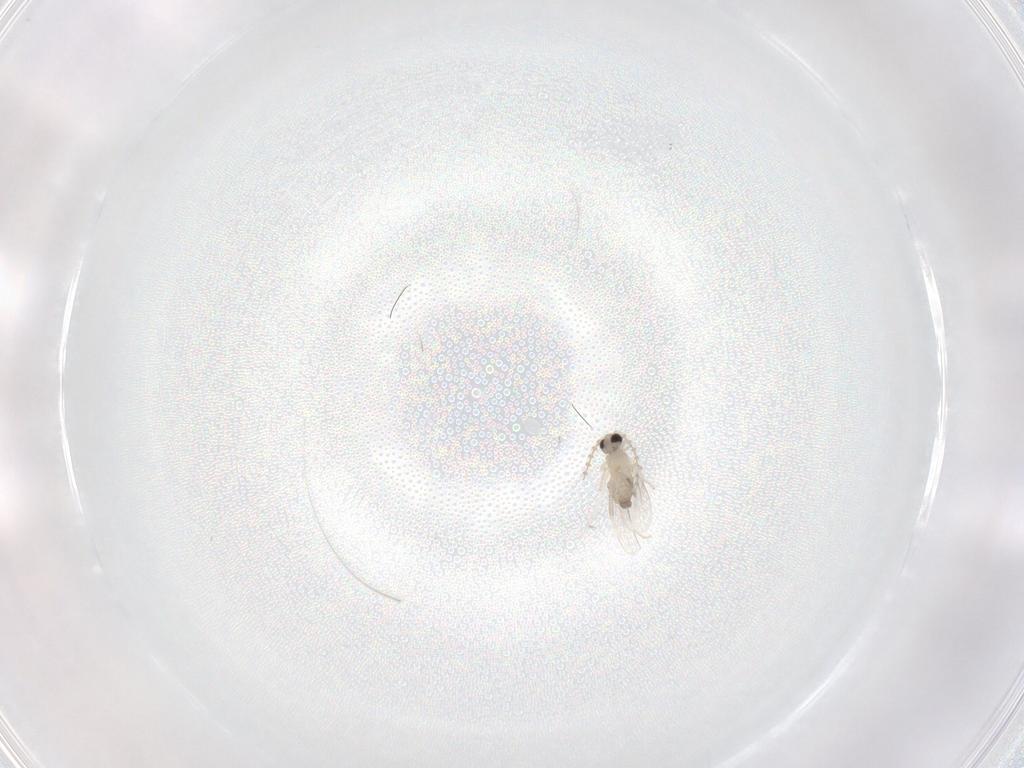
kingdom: Animalia
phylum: Arthropoda
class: Insecta
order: Diptera
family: Cecidomyiidae
